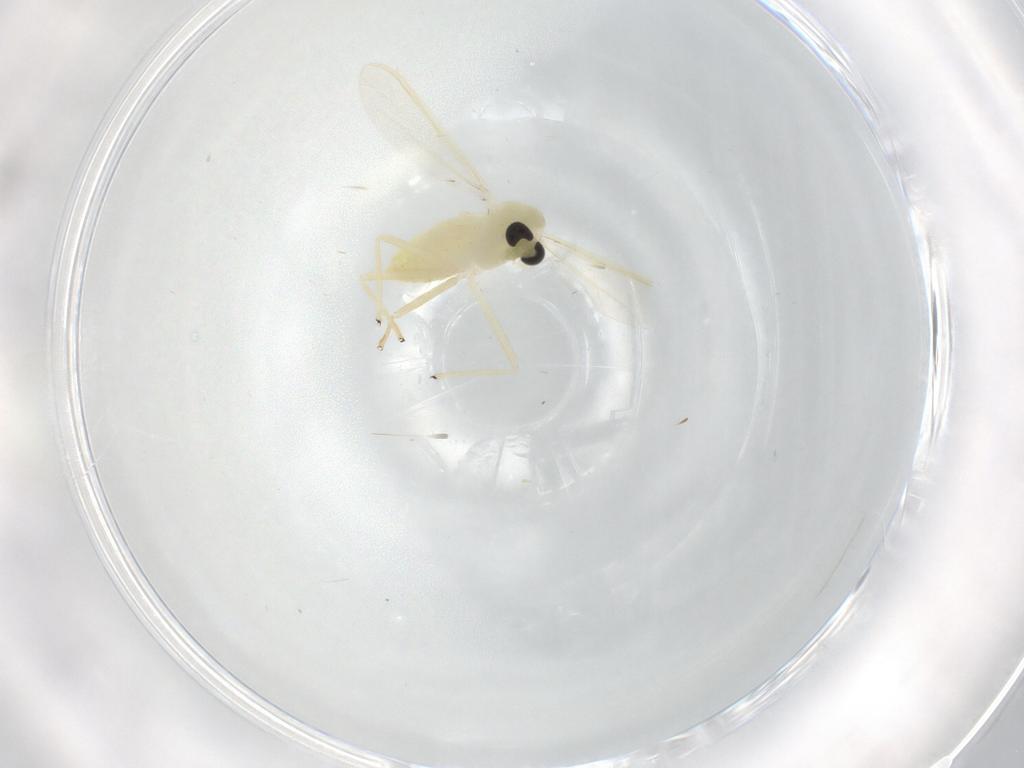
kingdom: Animalia
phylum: Arthropoda
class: Insecta
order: Diptera
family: Chironomidae
